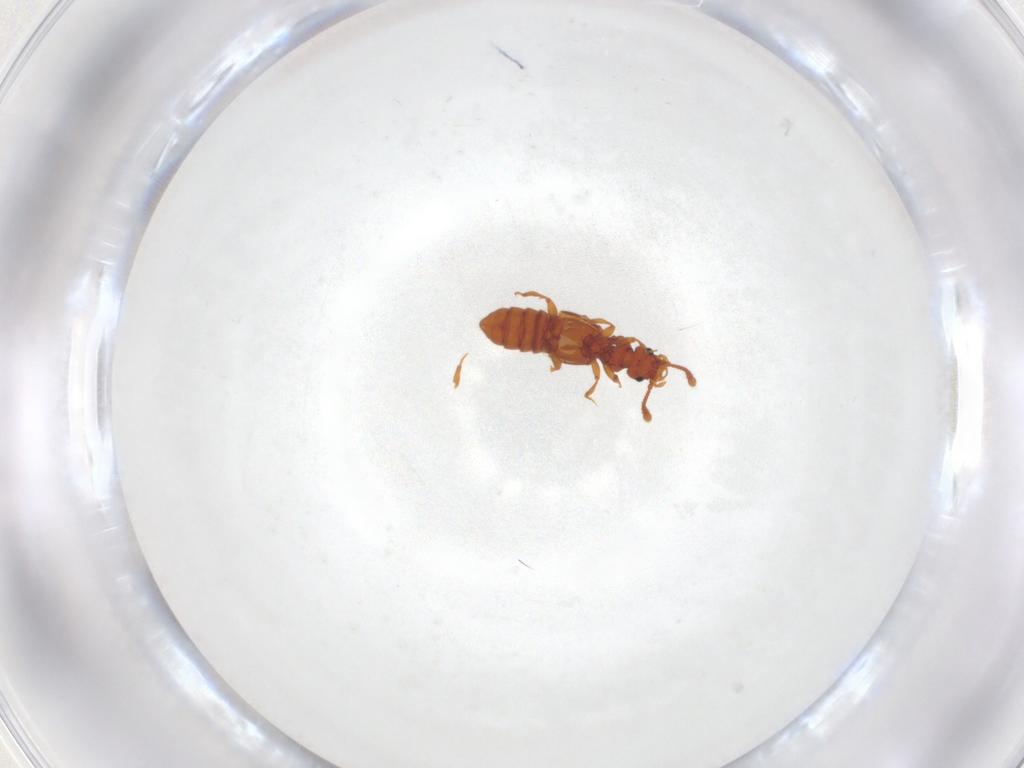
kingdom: Animalia
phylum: Arthropoda
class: Insecta
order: Coleoptera
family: Staphylinidae
